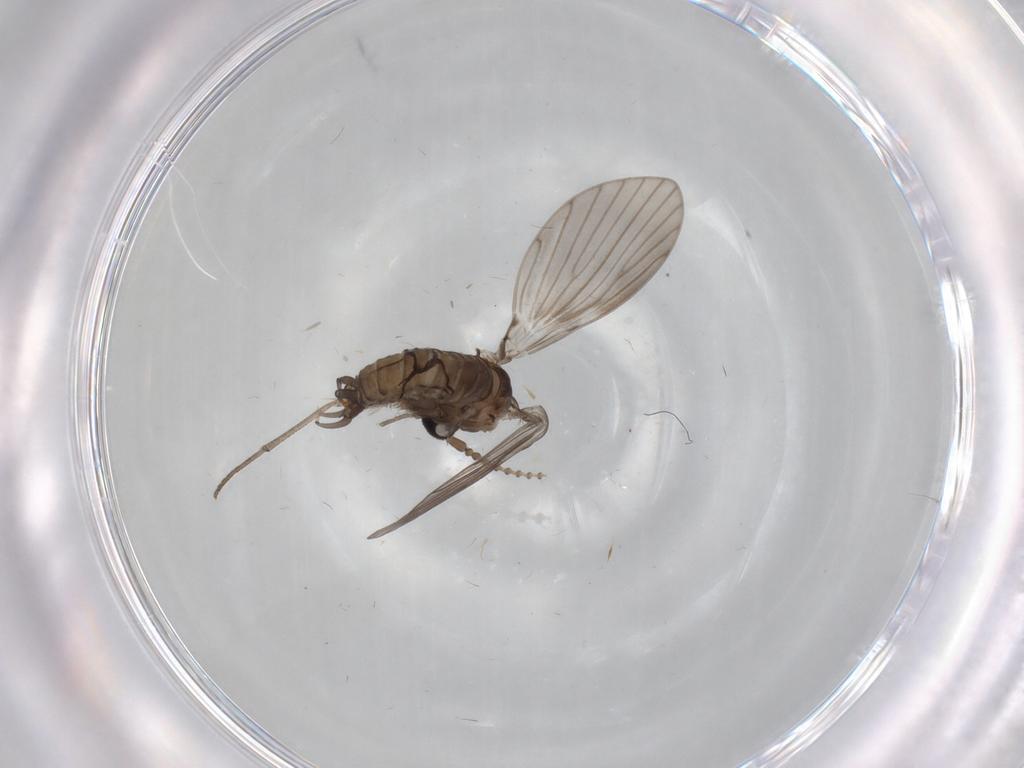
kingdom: Animalia
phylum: Arthropoda
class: Insecta
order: Diptera
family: Psychodidae
